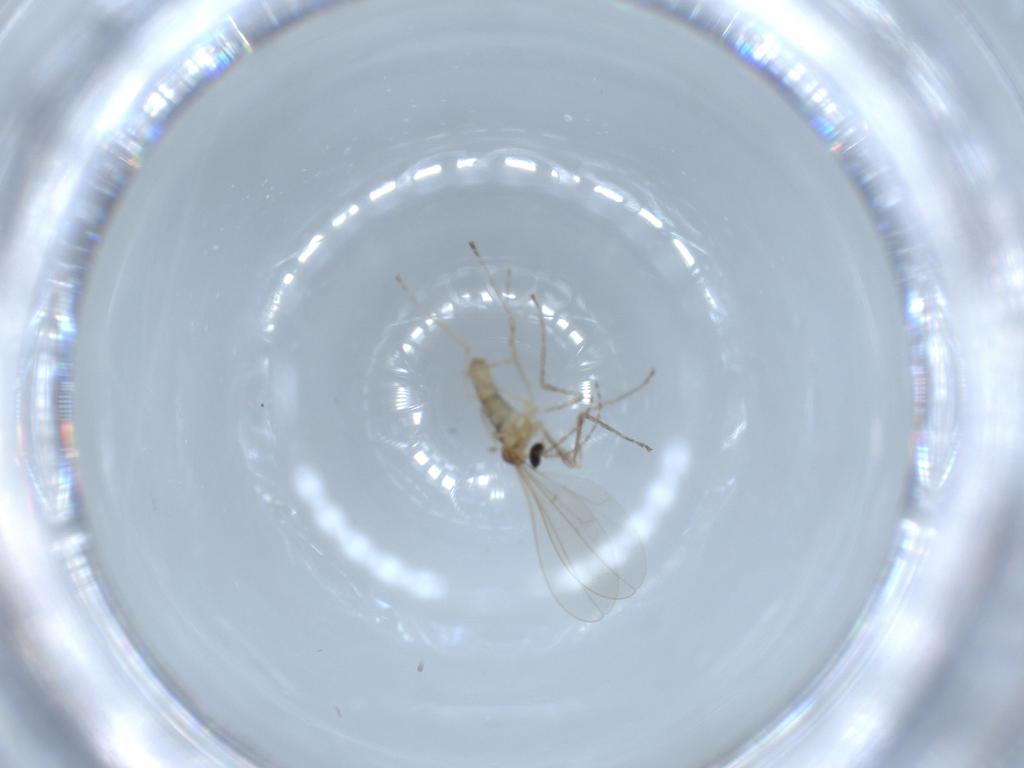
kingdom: Animalia
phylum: Arthropoda
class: Insecta
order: Diptera
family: Cecidomyiidae
